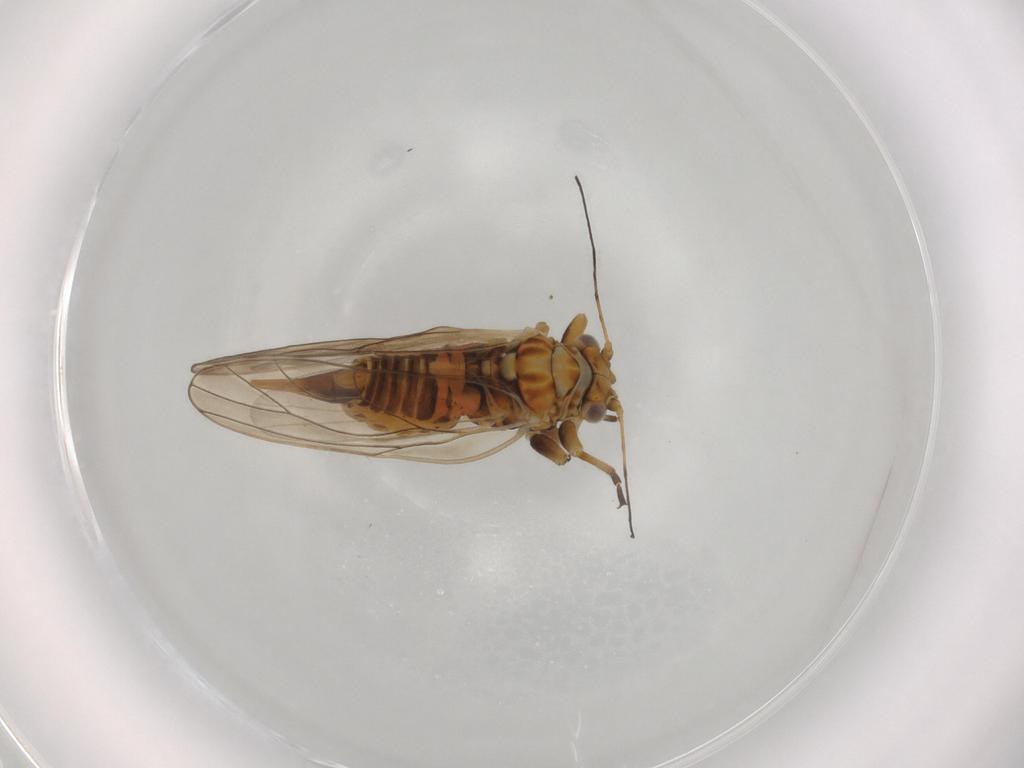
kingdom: Animalia
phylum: Arthropoda
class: Insecta
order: Hemiptera
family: Psyllidae
